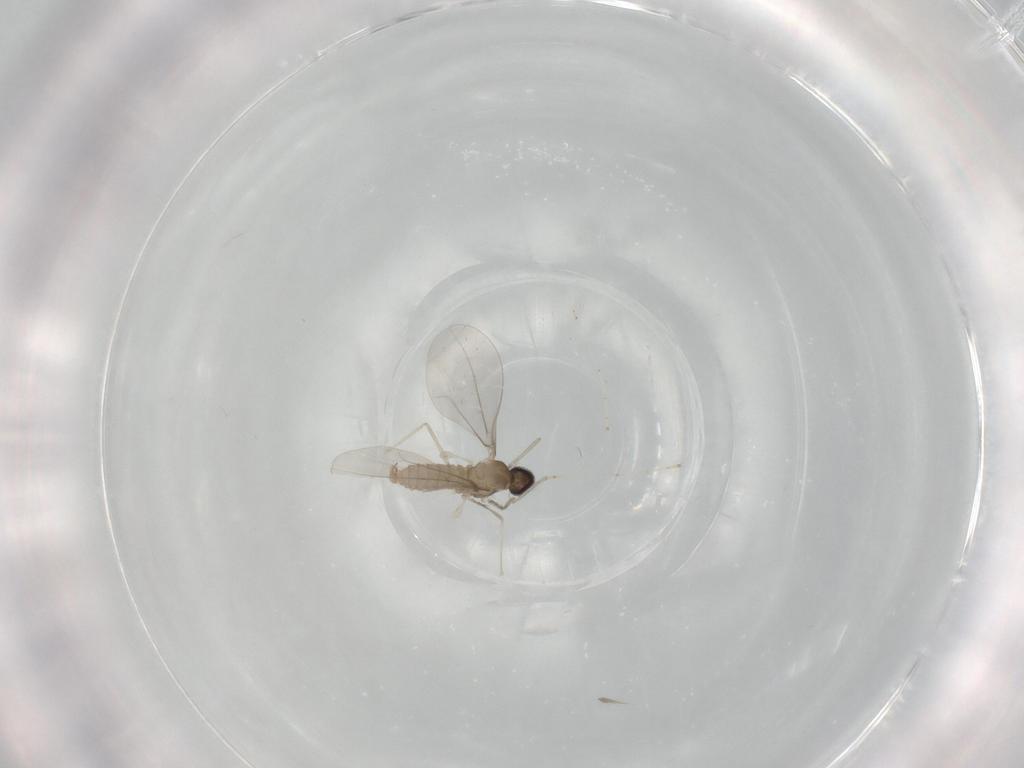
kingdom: Animalia
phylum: Arthropoda
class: Insecta
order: Diptera
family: Cecidomyiidae
